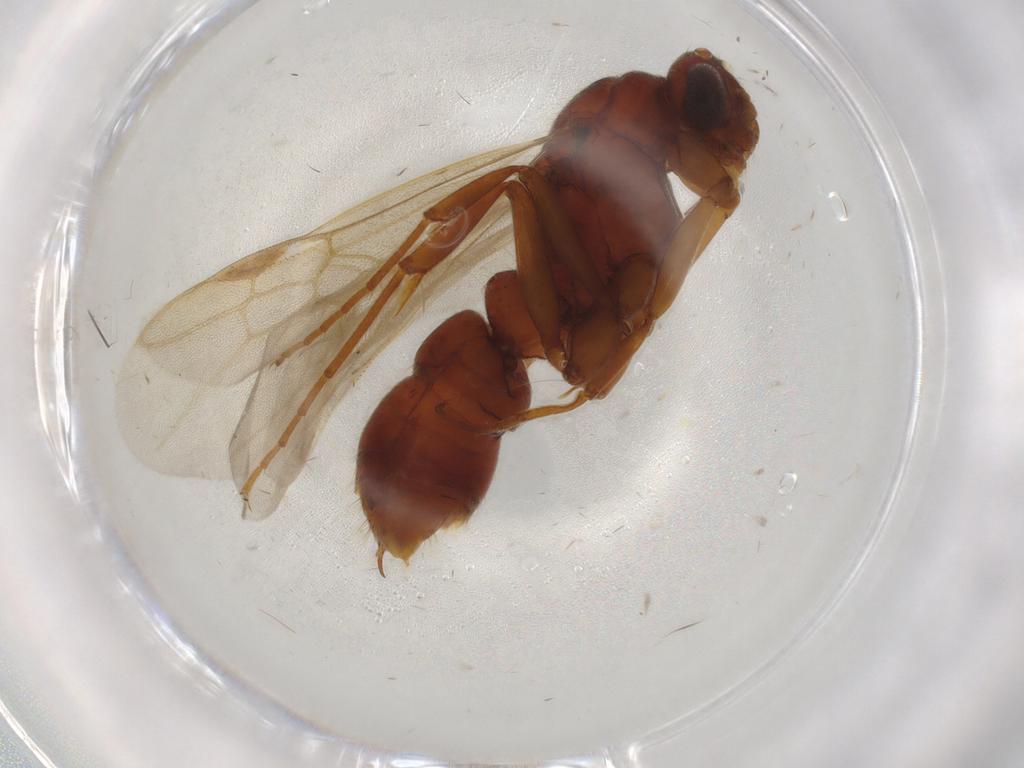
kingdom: Animalia
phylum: Arthropoda
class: Insecta
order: Hymenoptera
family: Formicidae
